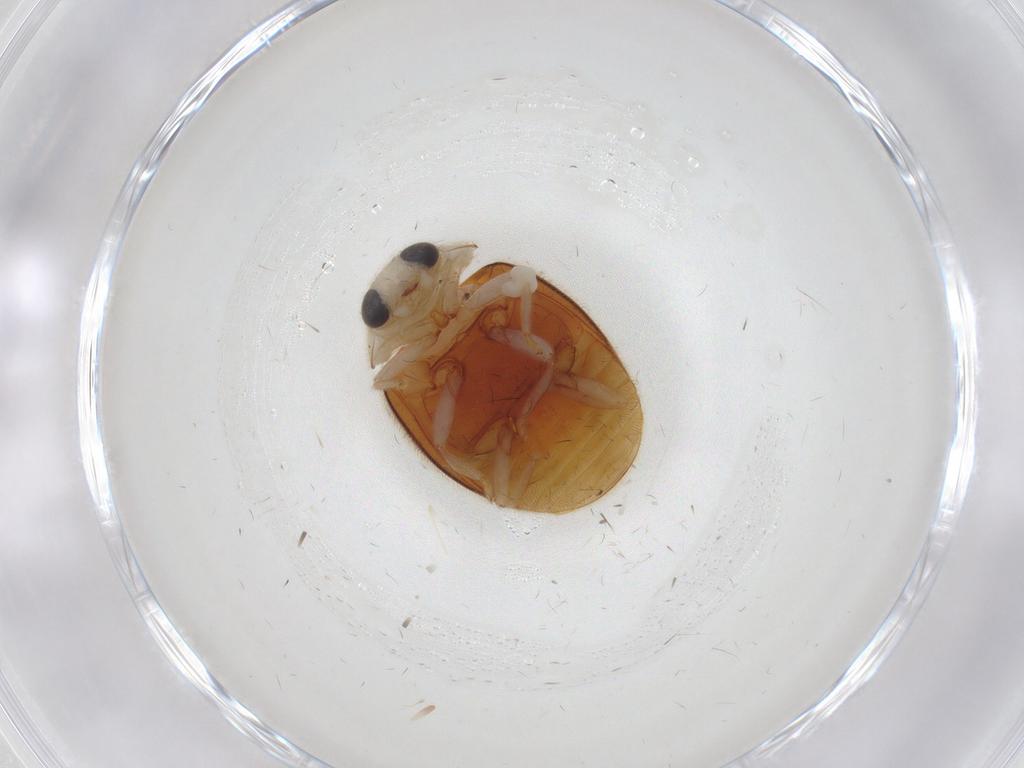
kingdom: Animalia
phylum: Arthropoda
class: Insecta
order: Coleoptera
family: Coccinellidae
